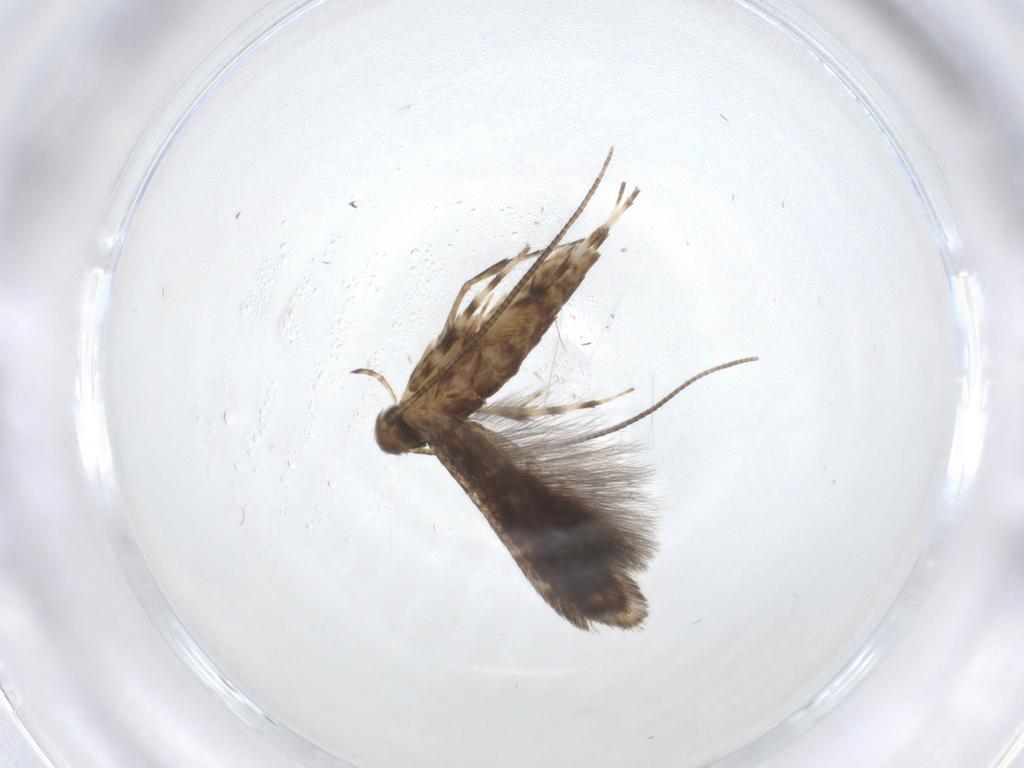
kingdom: Animalia
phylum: Arthropoda
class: Insecta
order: Lepidoptera
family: Gracillariidae
